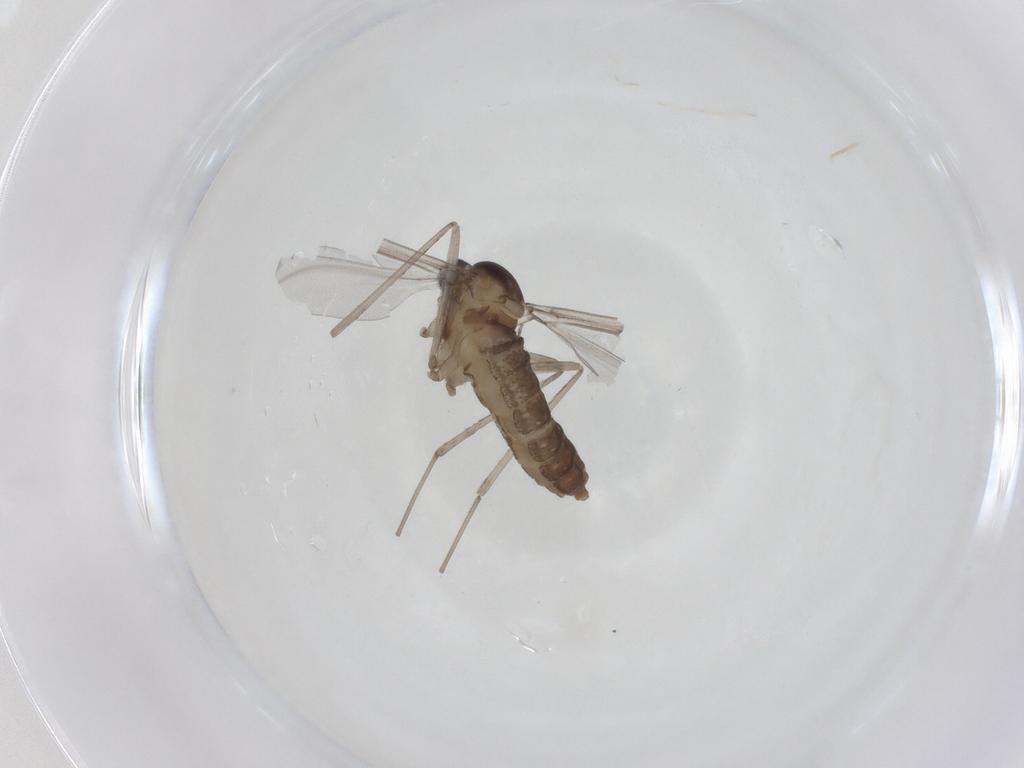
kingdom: Animalia
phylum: Arthropoda
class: Insecta
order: Diptera
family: Cecidomyiidae
